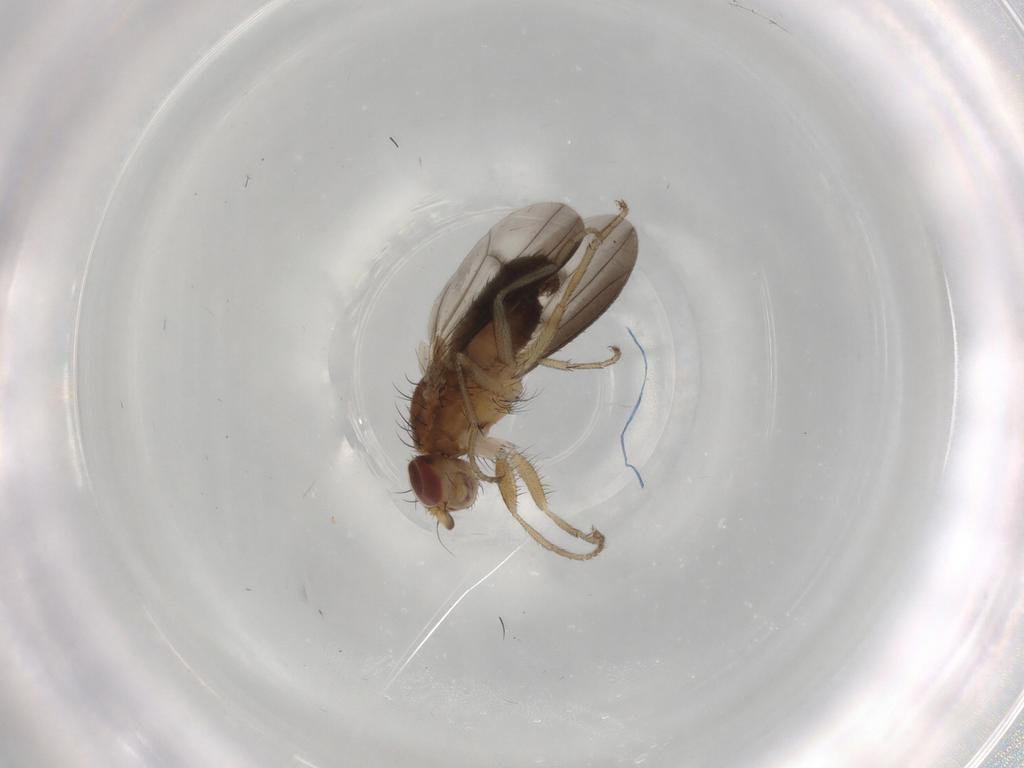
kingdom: Animalia
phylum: Arthropoda
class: Insecta
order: Diptera
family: Heleomyzidae
